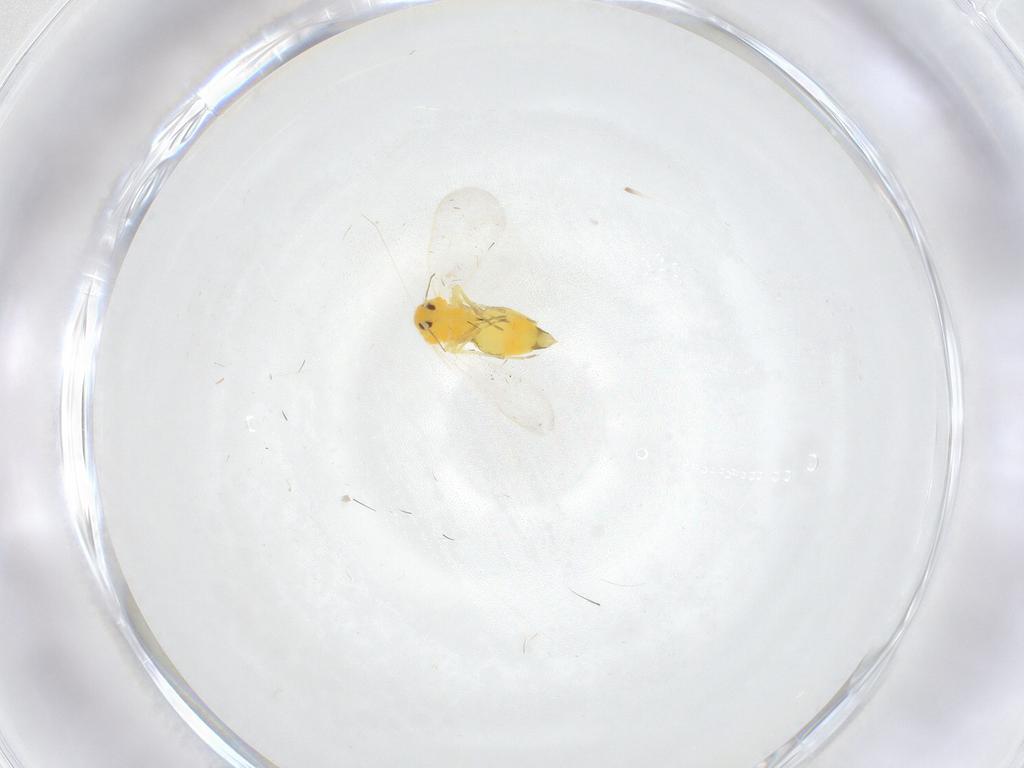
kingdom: Animalia
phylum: Arthropoda
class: Insecta
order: Hemiptera
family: Aleyrodidae
